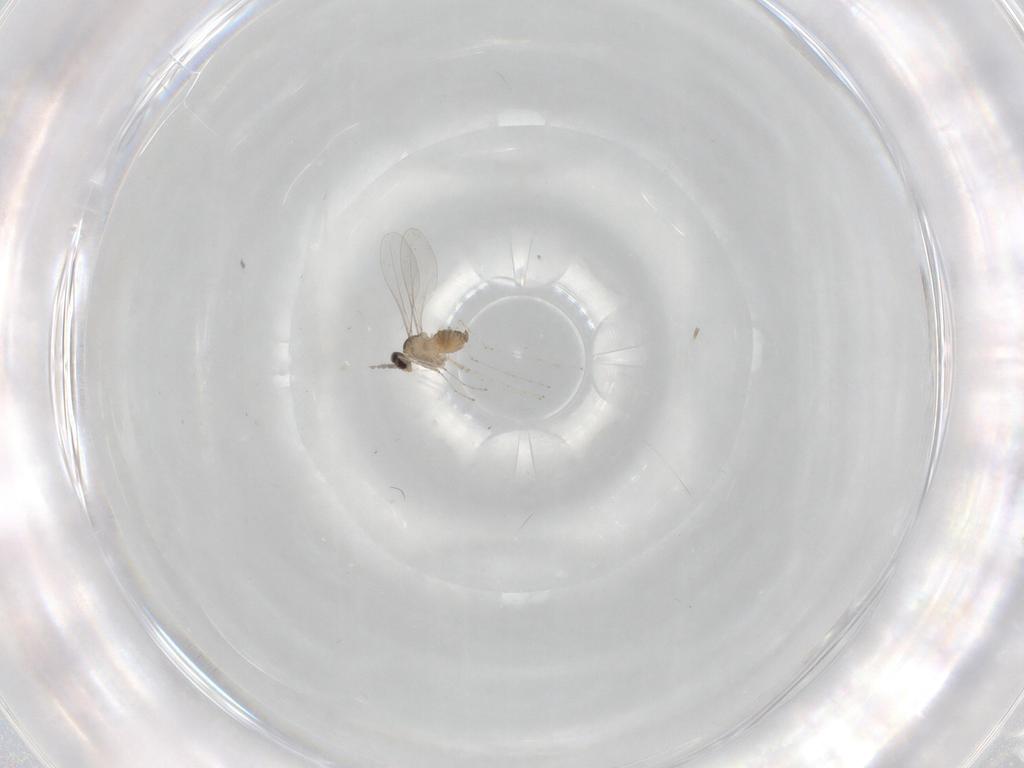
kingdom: Animalia
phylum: Arthropoda
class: Insecta
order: Diptera
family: Cecidomyiidae
